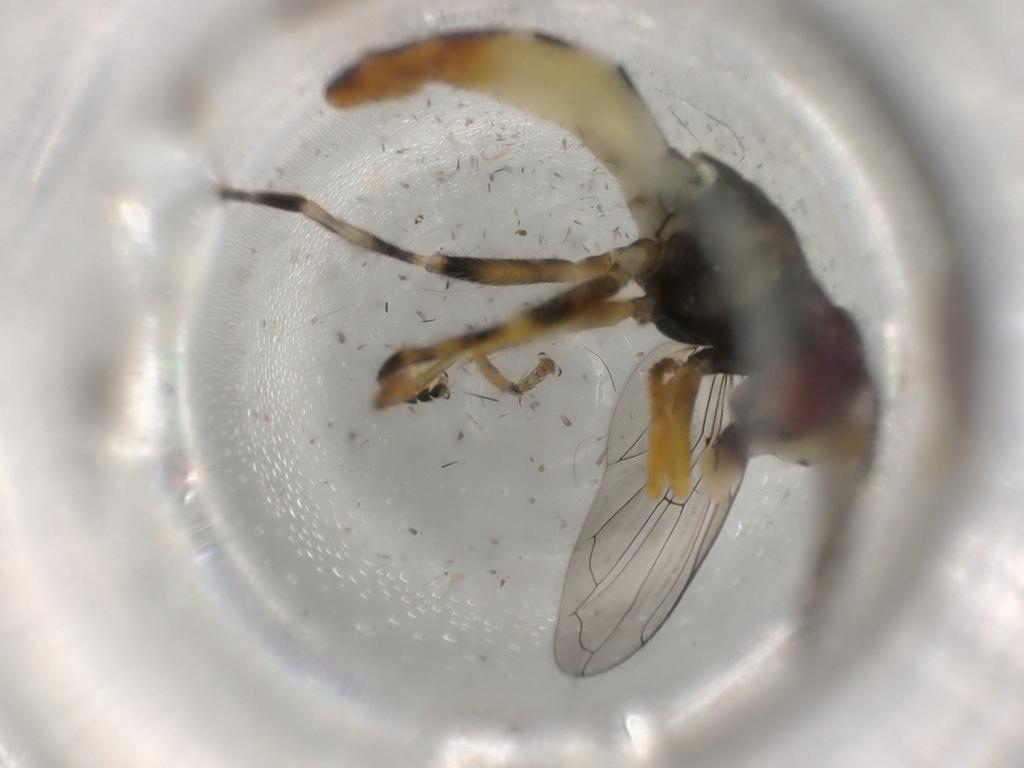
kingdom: Animalia
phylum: Arthropoda
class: Insecta
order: Diptera
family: Syrphidae
